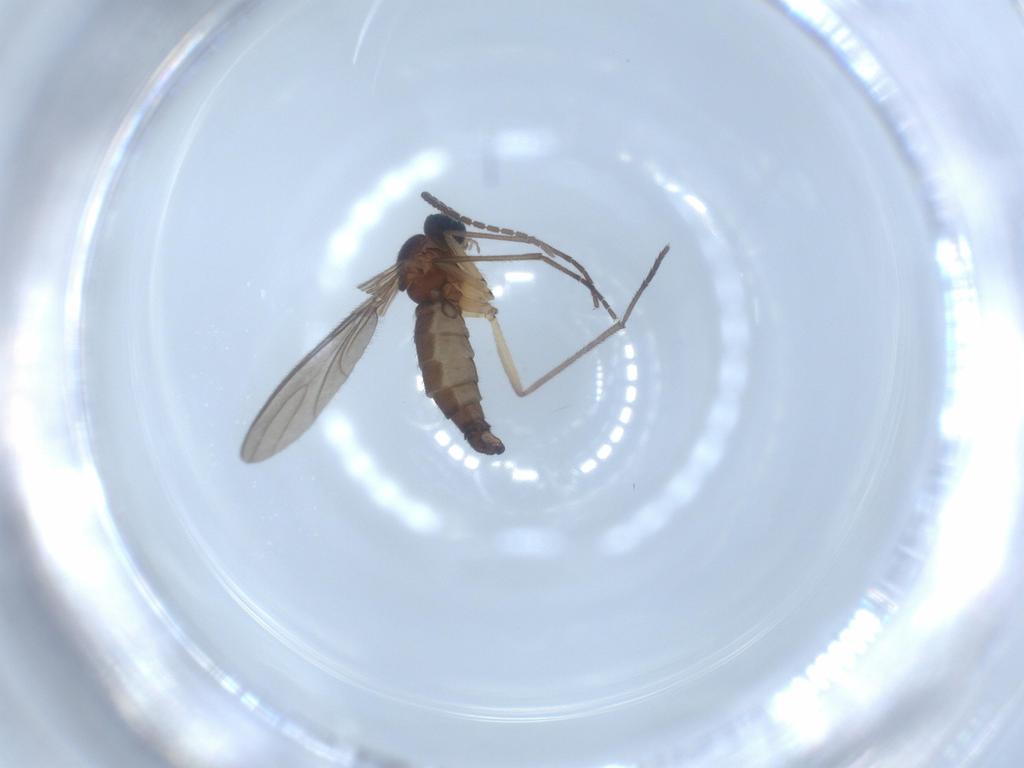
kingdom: Animalia
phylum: Arthropoda
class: Insecta
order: Diptera
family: Sciaridae
